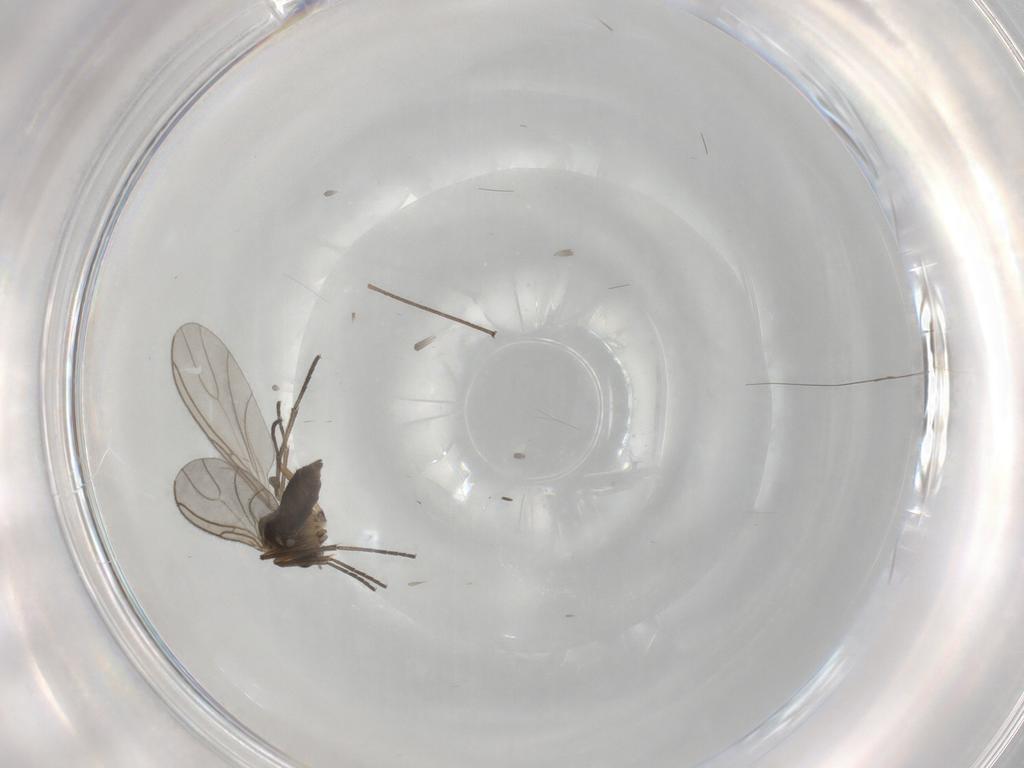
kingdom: Animalia
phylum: Arthropoda
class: Insecta
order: Diptera
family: Limoniidae
